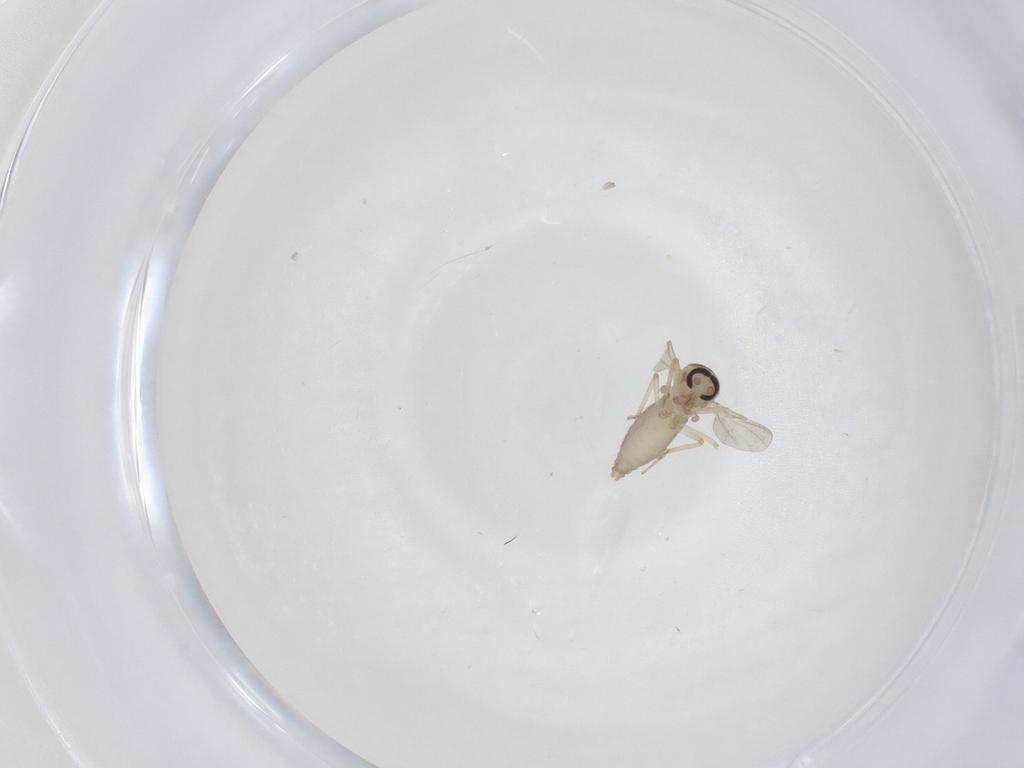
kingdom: Animalia
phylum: Arthropoda
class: Insecta
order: Diptera
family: Ceratopogonidae
